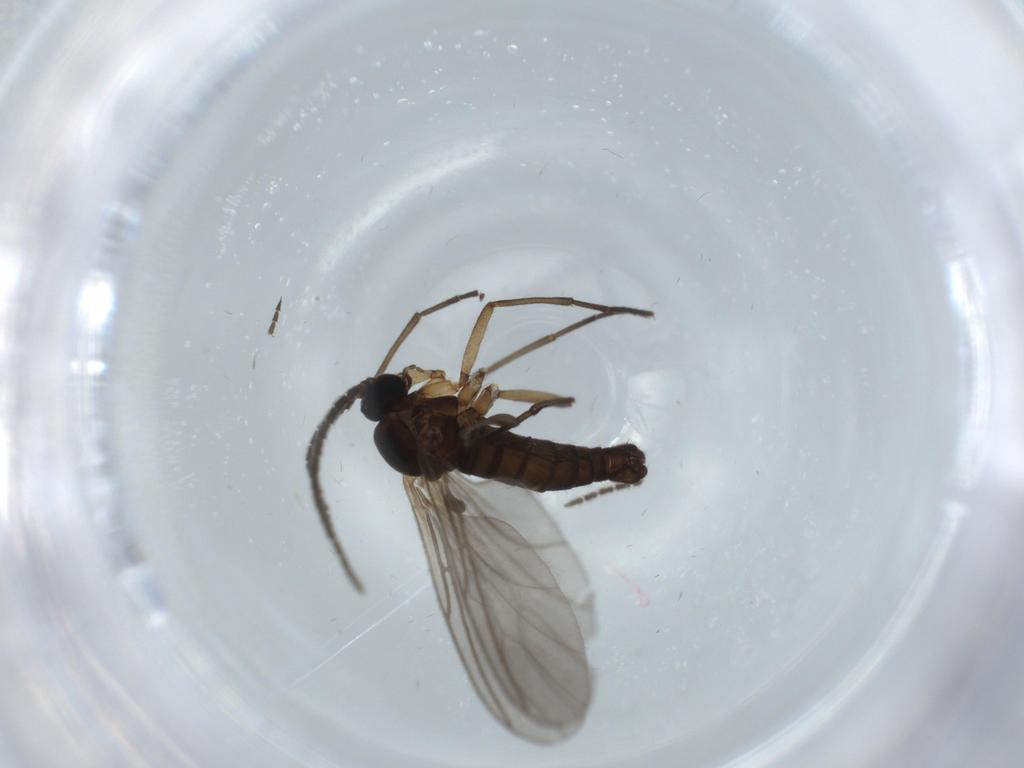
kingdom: Animalia
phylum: Arthropoda
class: Insecta
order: Diptera
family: Sciaridae
